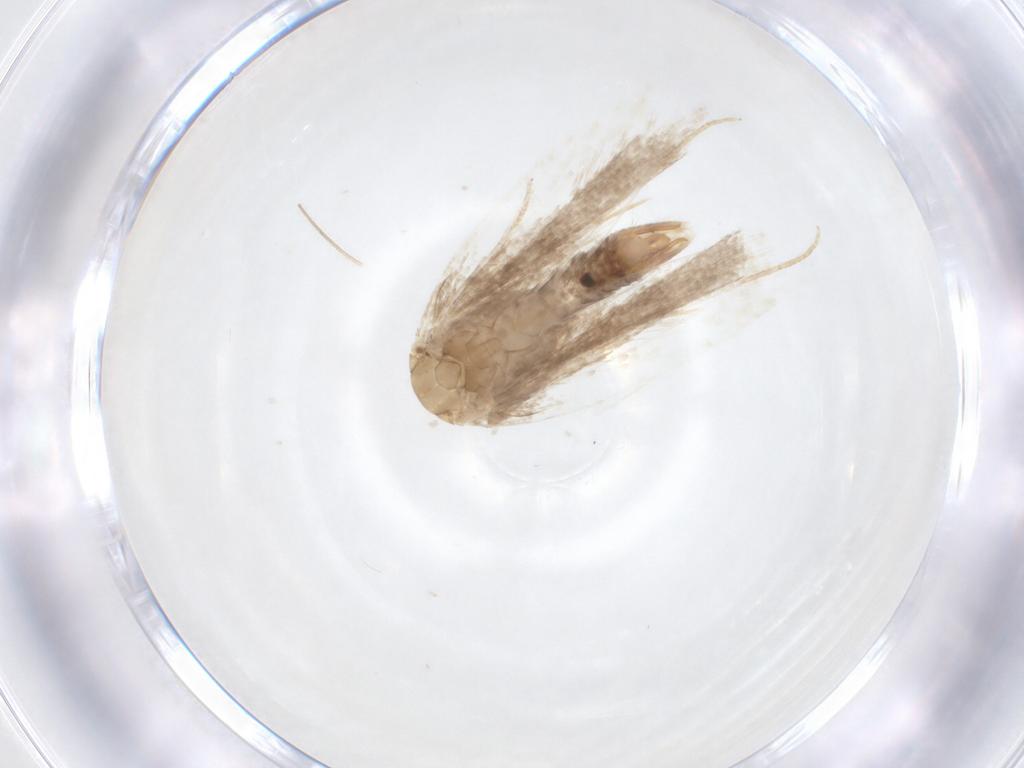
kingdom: Animalia
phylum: Arthropoda
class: Insecta
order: Lepidoptera
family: Gelechiidae
